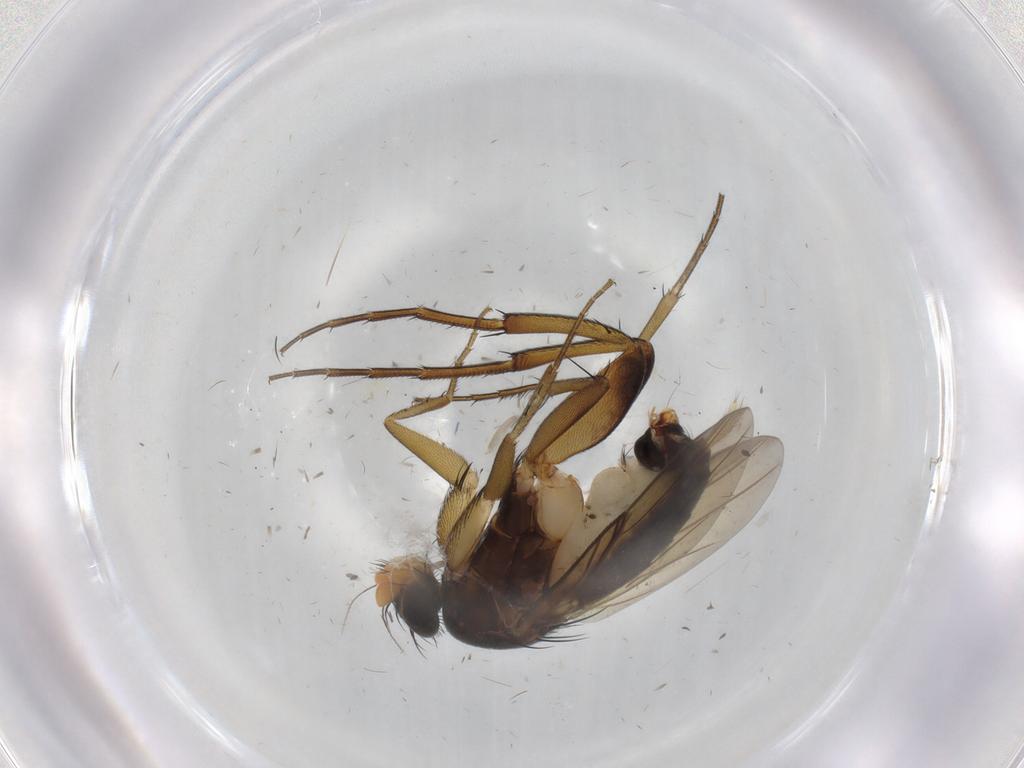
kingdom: Animalia
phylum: Arthropoda
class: Insecta
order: Diptera
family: Phoridae
